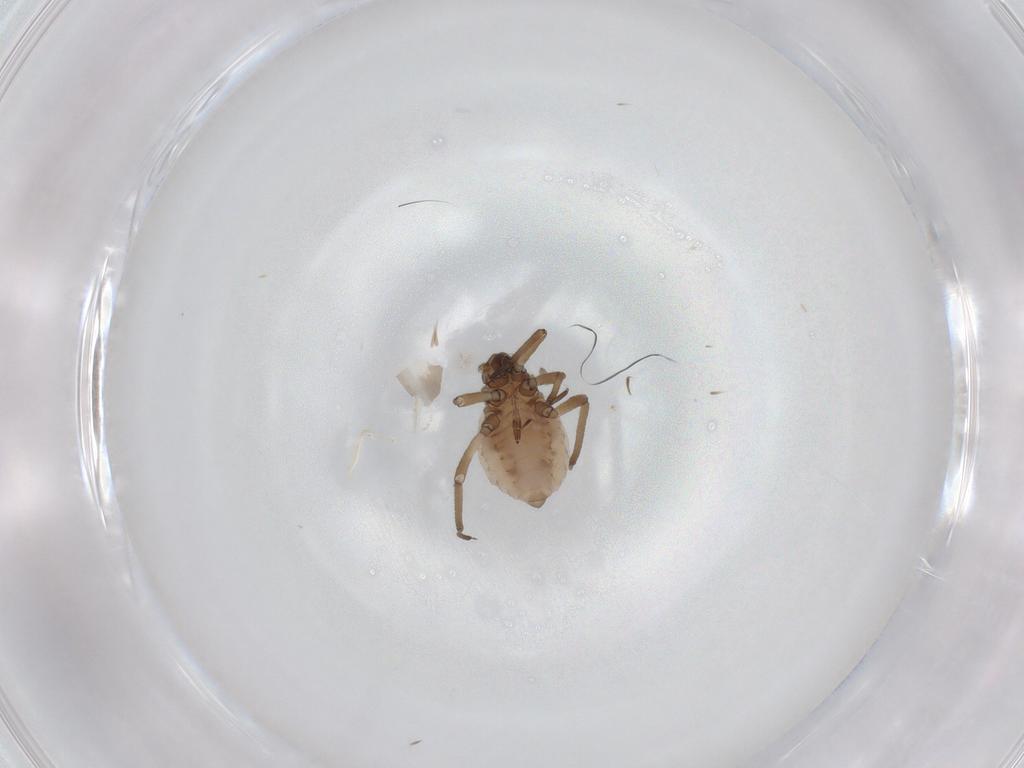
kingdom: Animalia
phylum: Arthropoda
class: Insecta
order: Hemiptera
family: Aphididae
